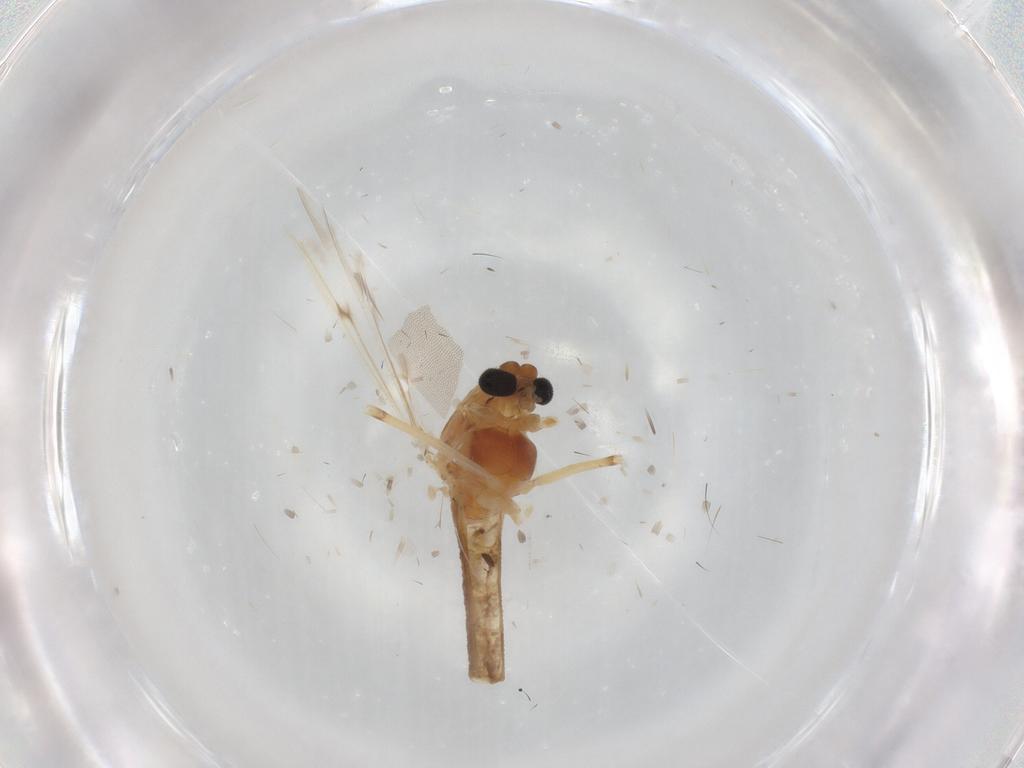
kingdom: Animalia
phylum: Arthropoda
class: Insecta
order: Diptera
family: Chironomidae
